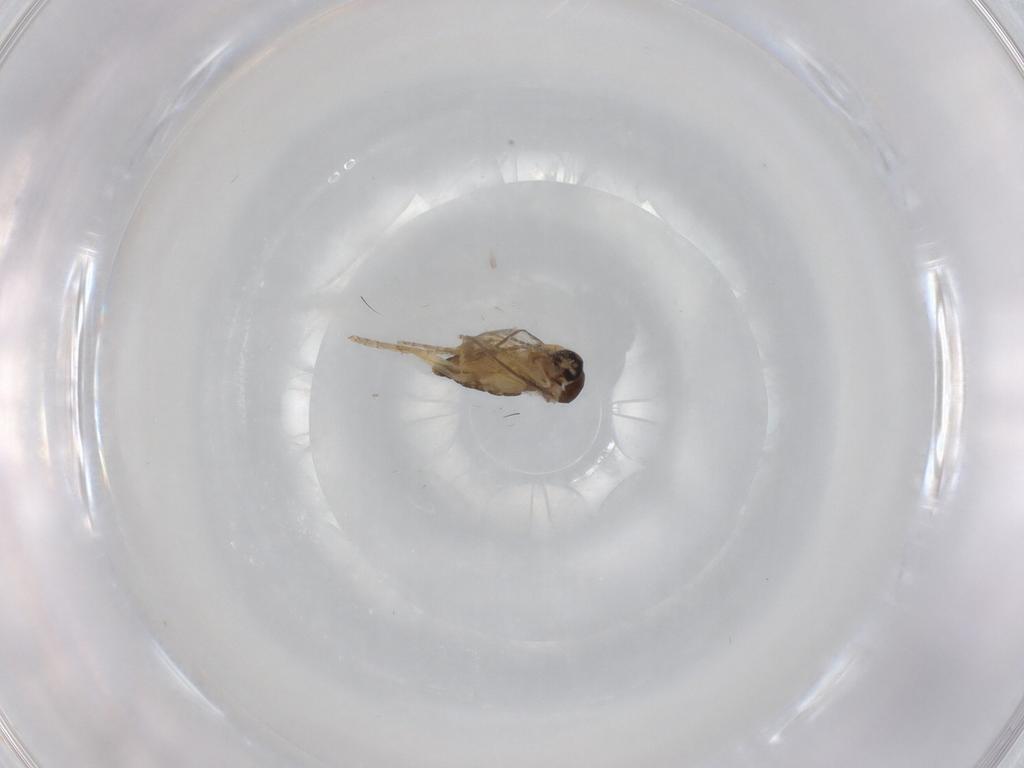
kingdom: Animalia
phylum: Arthropoda
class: Insecta
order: Diptera
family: Ceratopogonidae
